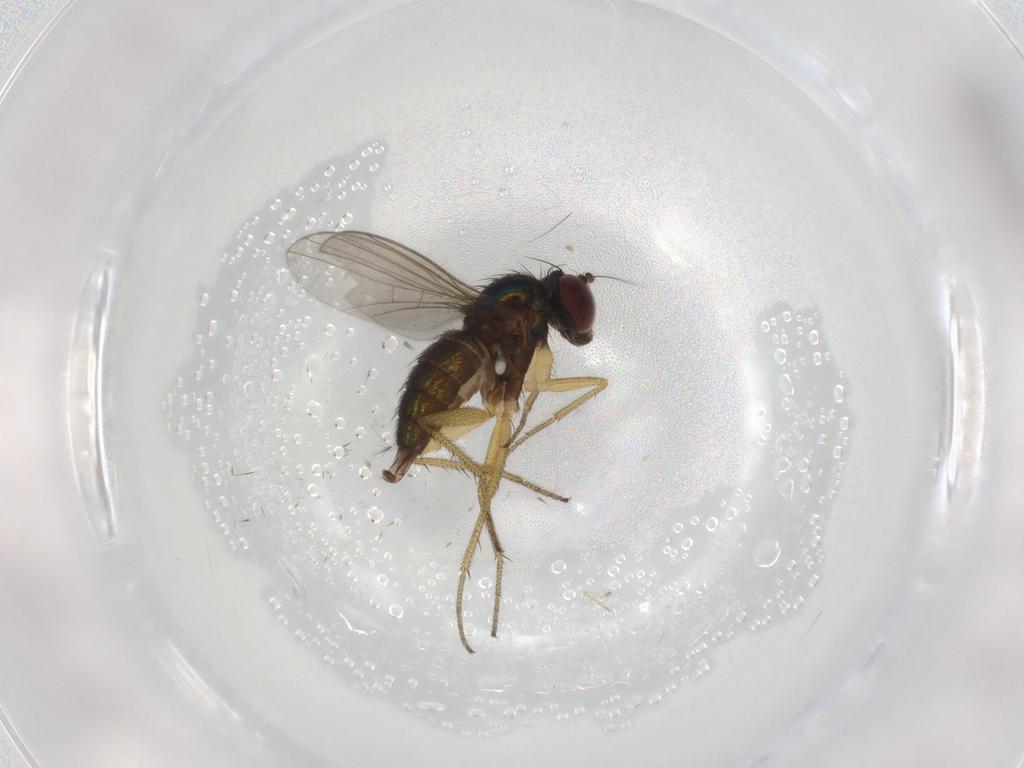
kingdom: Animalia
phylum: Arthropoda
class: Insecta
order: Diptera
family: Dolichopodidae
